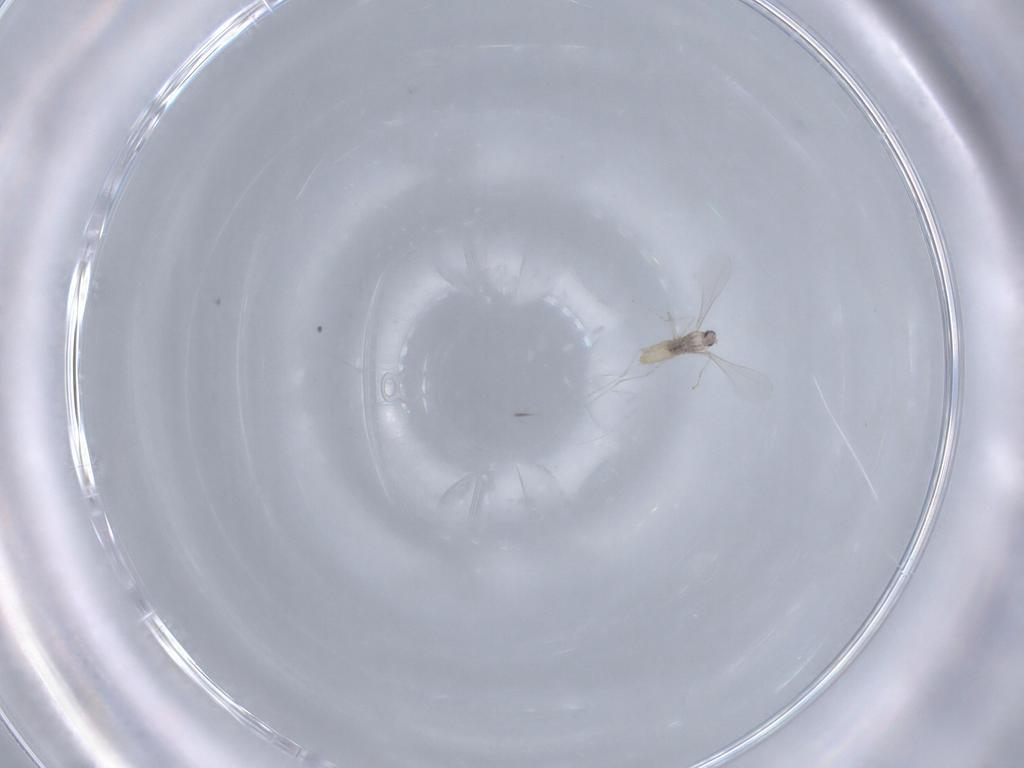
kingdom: Animalia
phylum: Arthropoda
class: Insecta
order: Diptera
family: Cecidomyiidae
